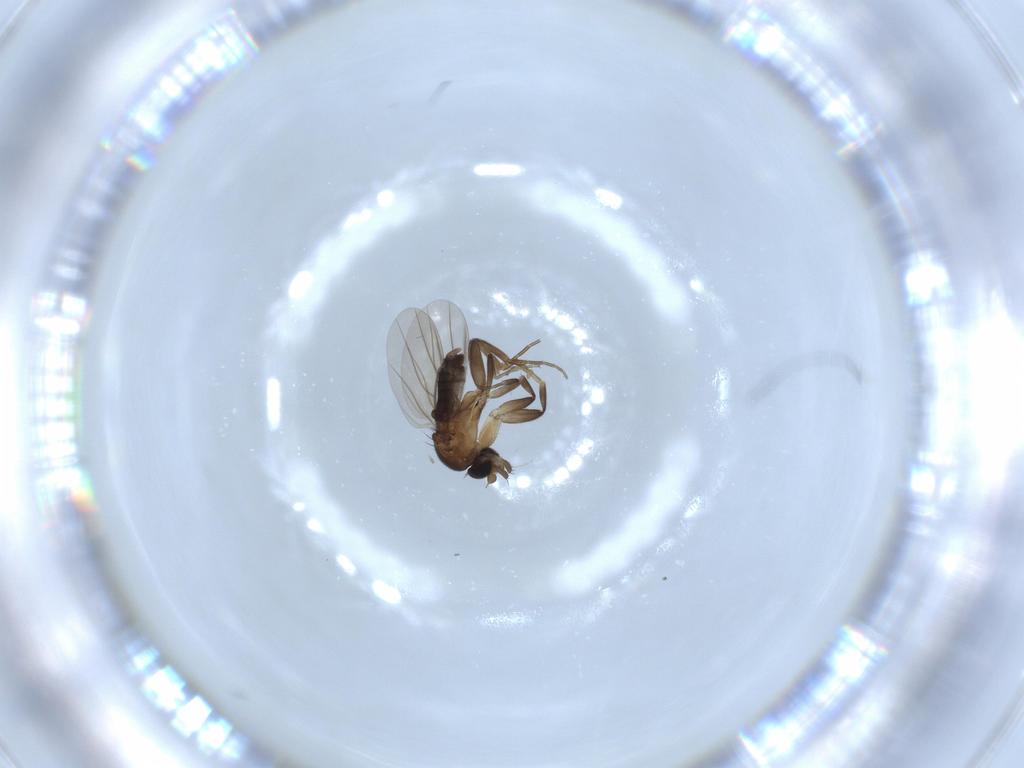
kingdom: Animalia
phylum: Arthropoda
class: Insecta
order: Diptera
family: Phoridae
